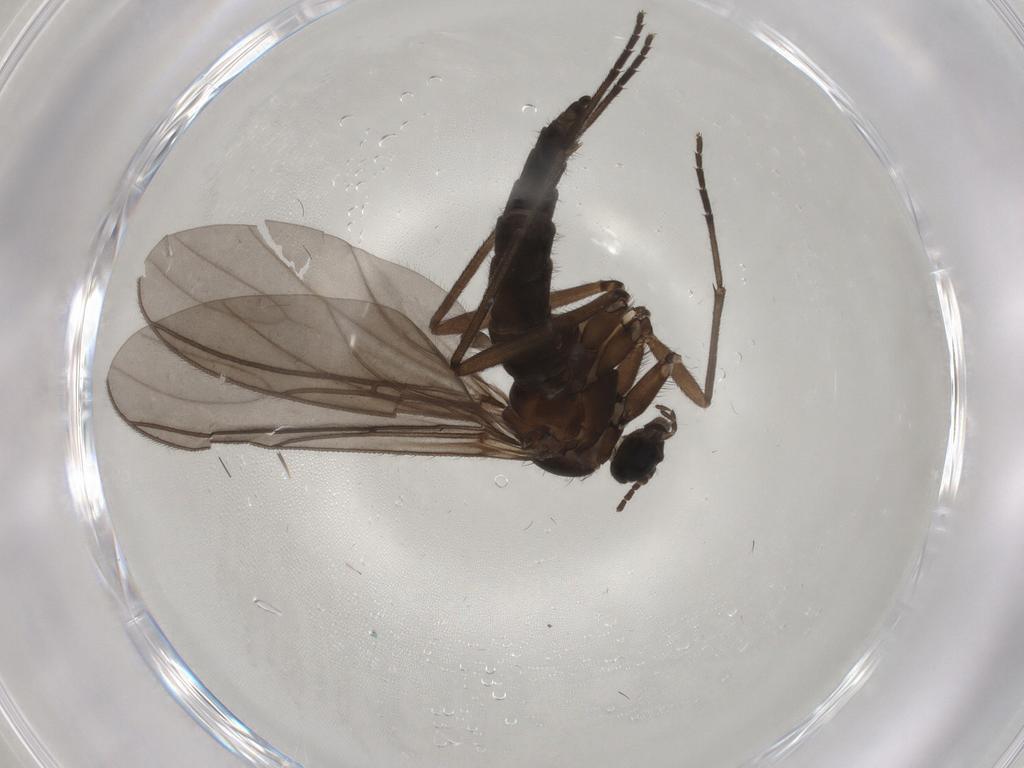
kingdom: Animalia
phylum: Arthropoda
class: Insecta
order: Diptera
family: Sciaridae
